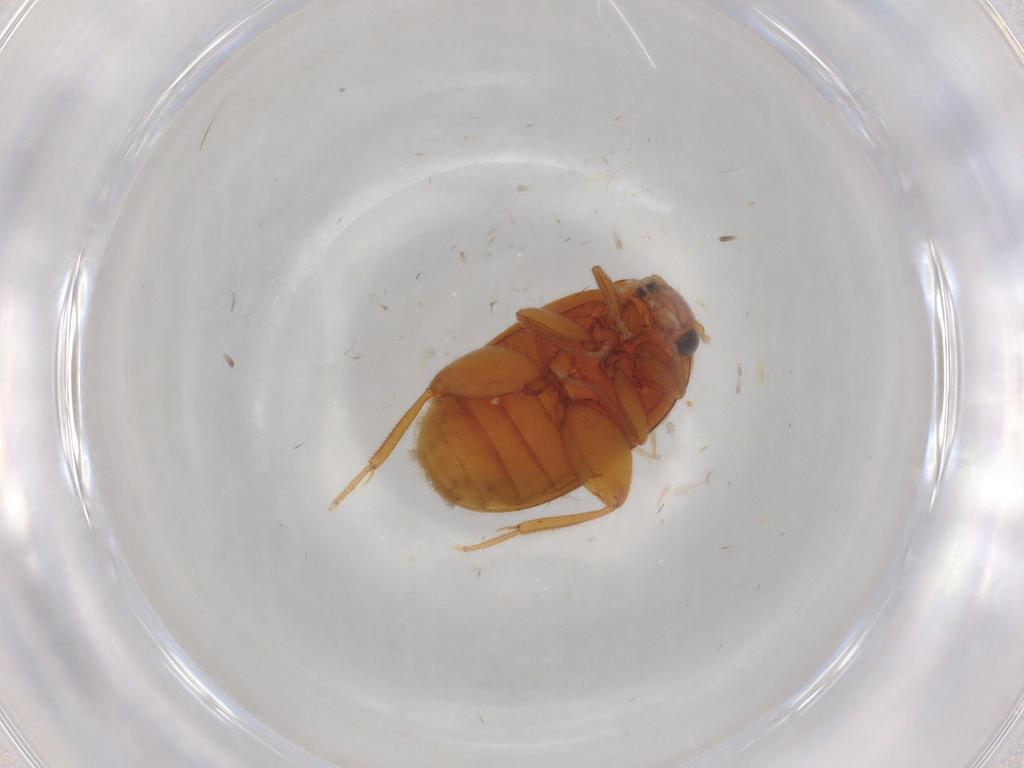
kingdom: Animalia
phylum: Arthropoda
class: Insecta
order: Coleoptera
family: Scirtidae
